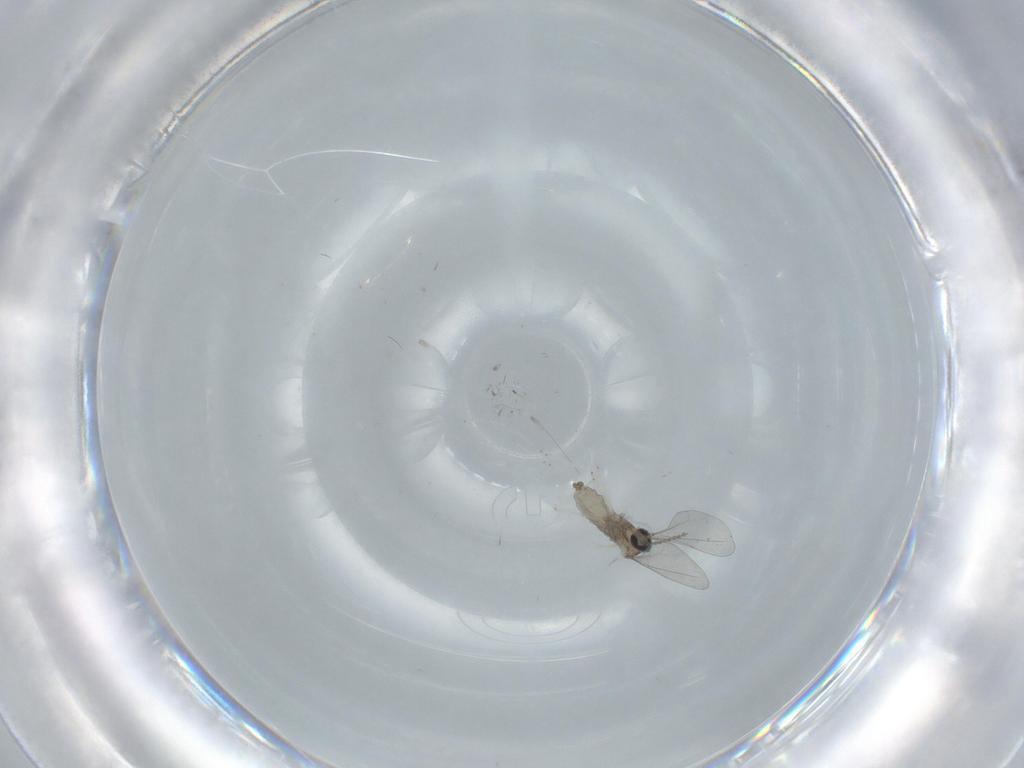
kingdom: Animalia
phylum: Arthropoda
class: Insecta
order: Diptera
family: Cecidomyiidae
